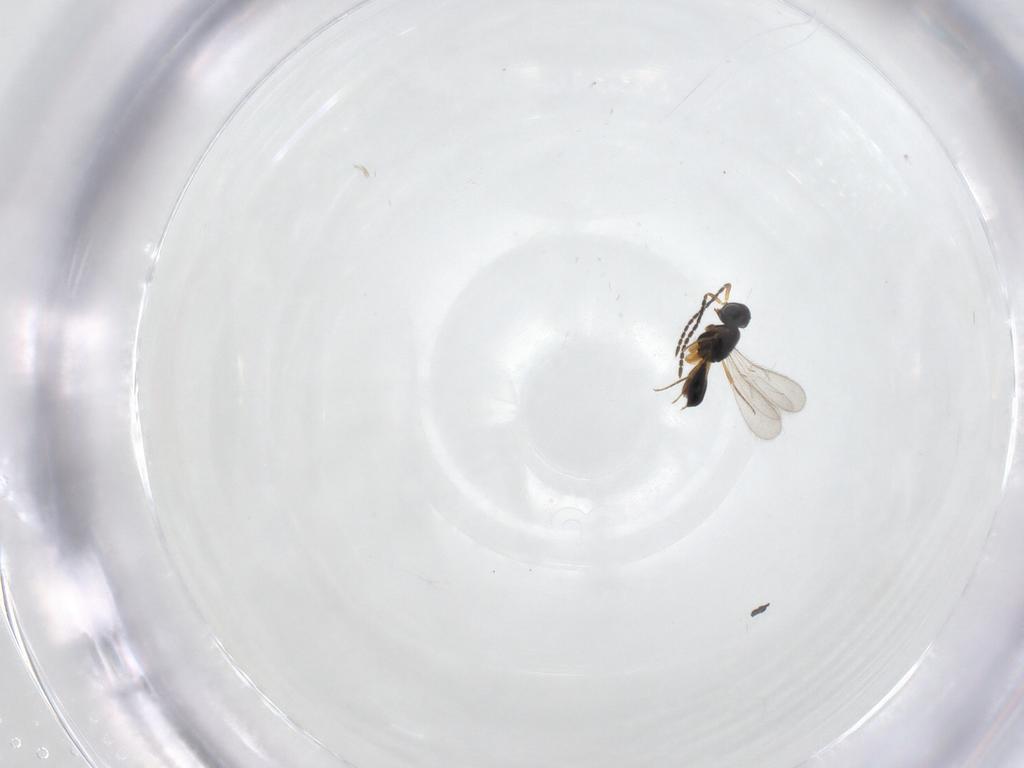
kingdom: Animalia
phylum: Arthropoda
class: Insecta
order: Hymenoptera
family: Scelionidae
